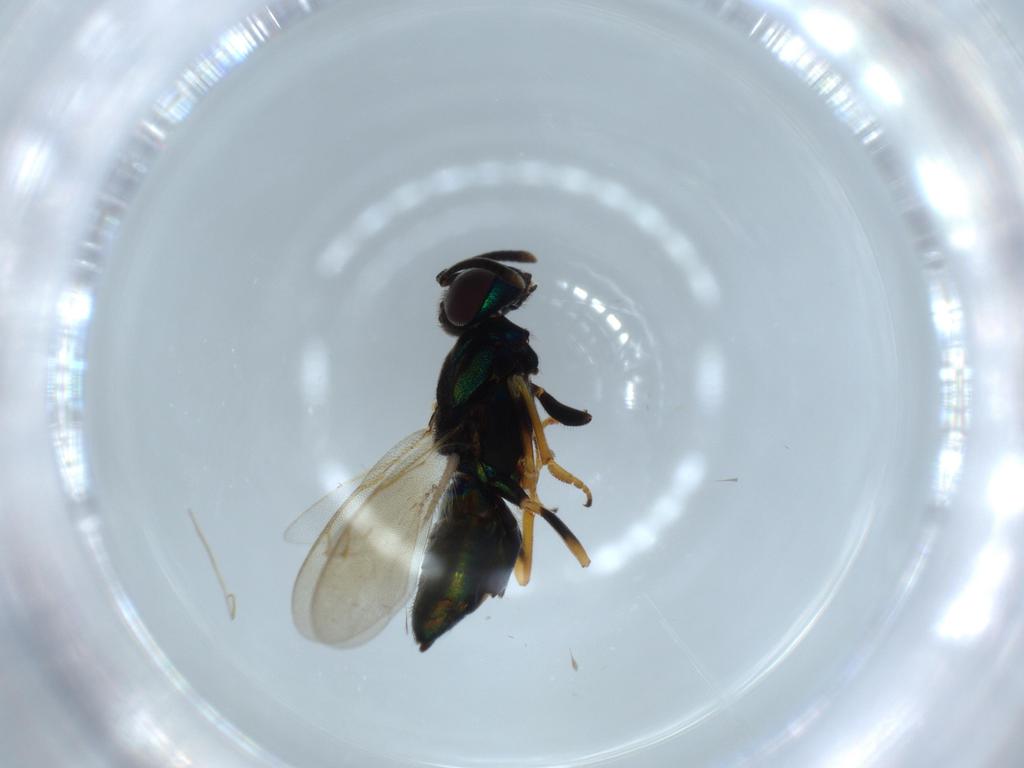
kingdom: Animalia
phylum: Arthropoda
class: Insecta
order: Hymenoptera
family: Eupelmidae
